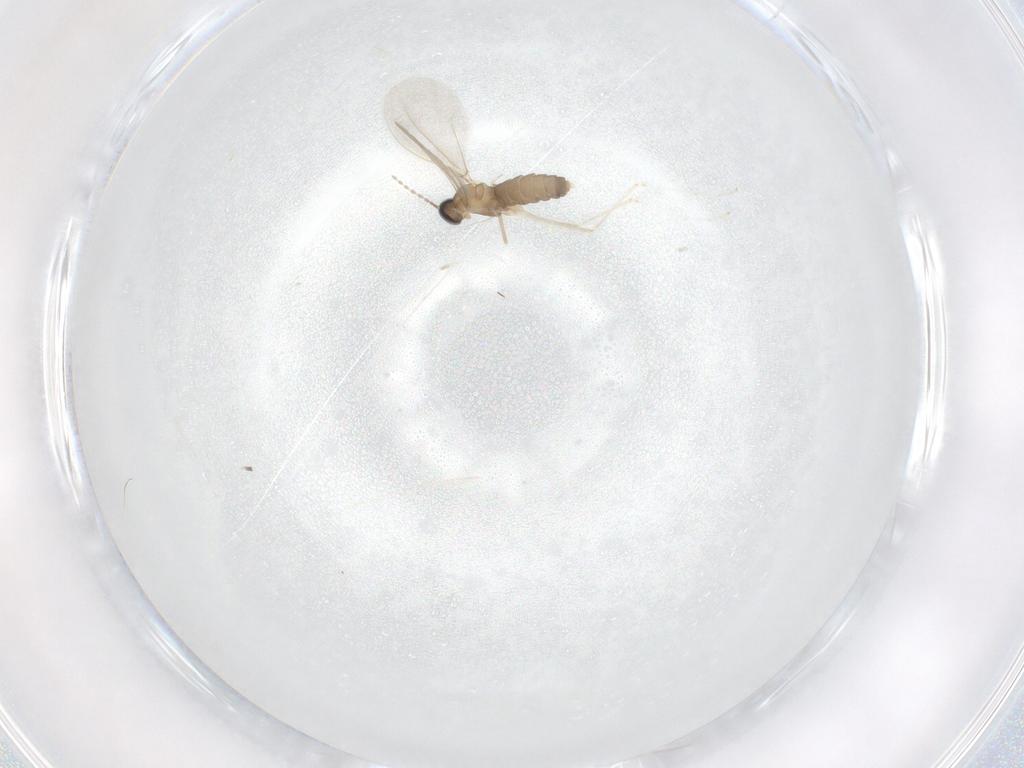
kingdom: Animalia
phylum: Arthropoda
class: Insecta
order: Diptera
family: Cecidomyiidae
